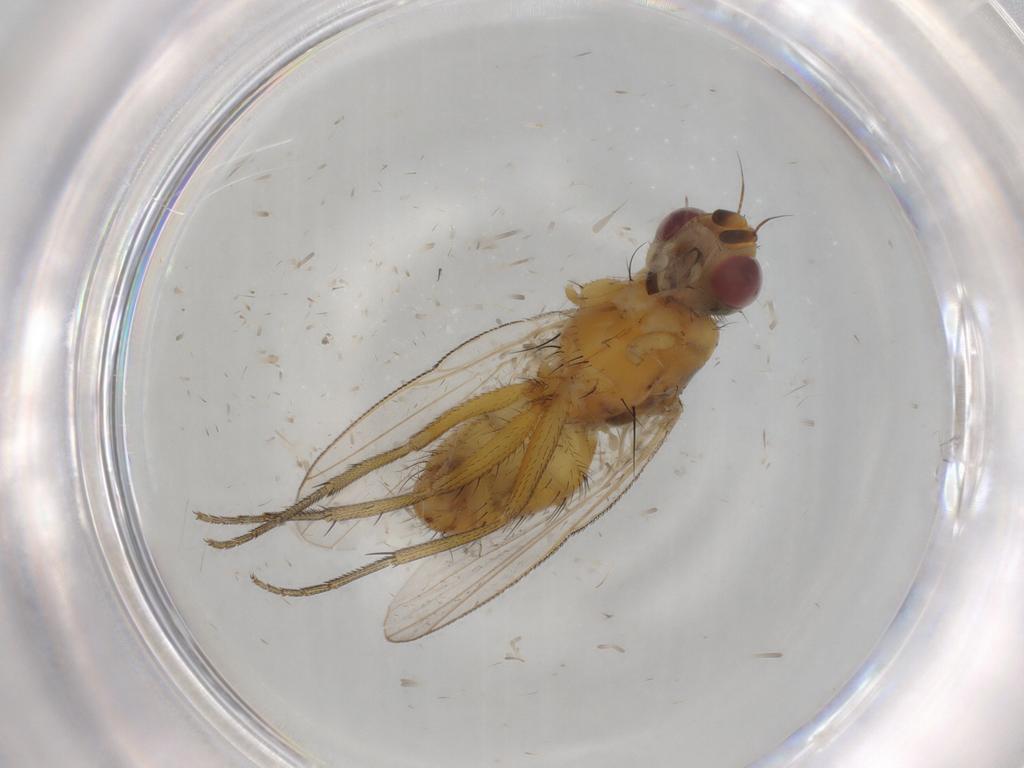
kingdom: Animalia
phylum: Arthropoda
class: Insecta
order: Diptera
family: Muscidae
